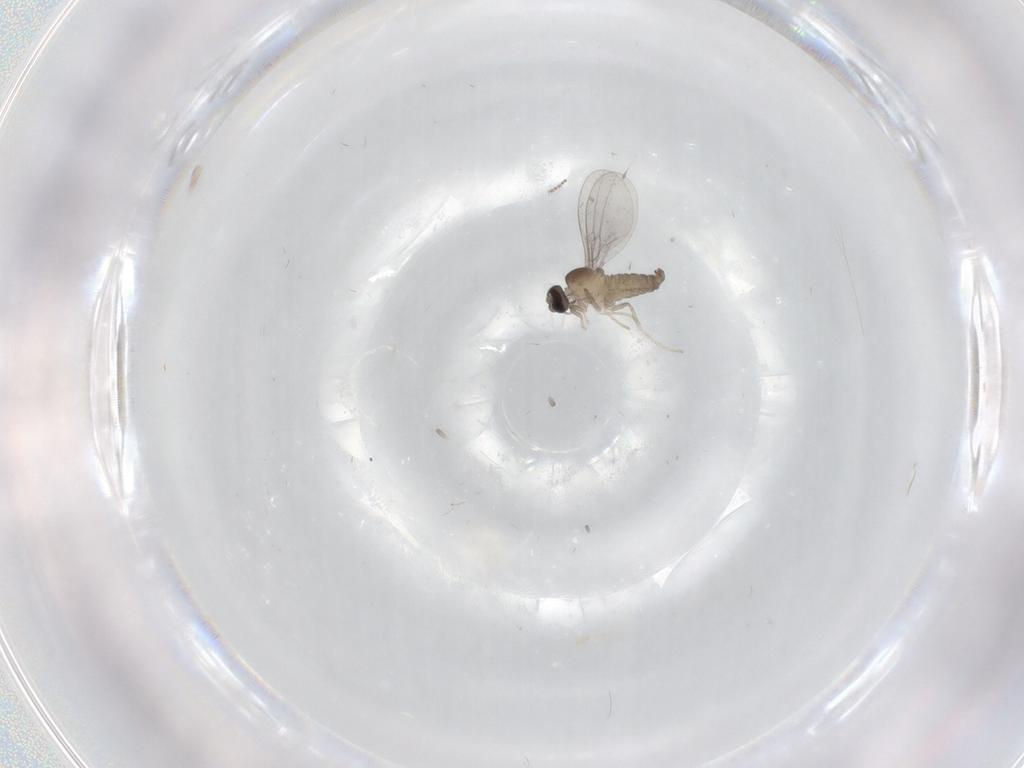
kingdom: Animalia
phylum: Arthropoda
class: Insecta
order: Diptera
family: Cecidomyiidae
